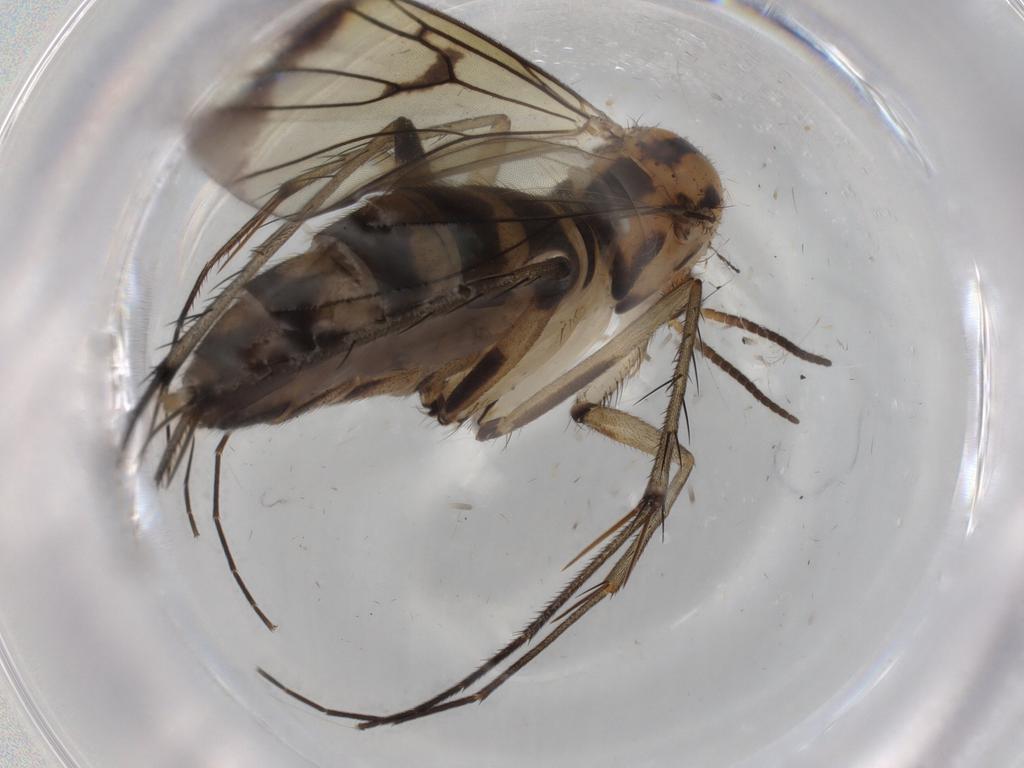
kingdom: Animalia
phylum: Arthropoda
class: Insecta
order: Diptera
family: Mycetophilidae
